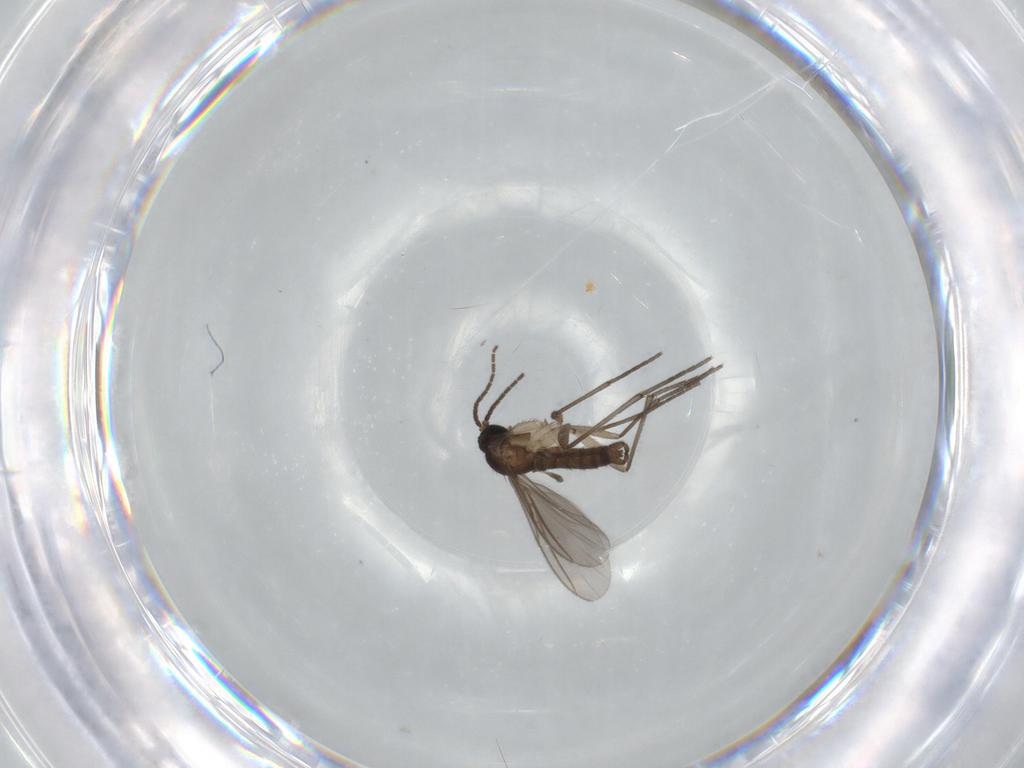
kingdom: Animalia
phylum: Arthropoda
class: Insecta
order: Diptera
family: Sciaridae
